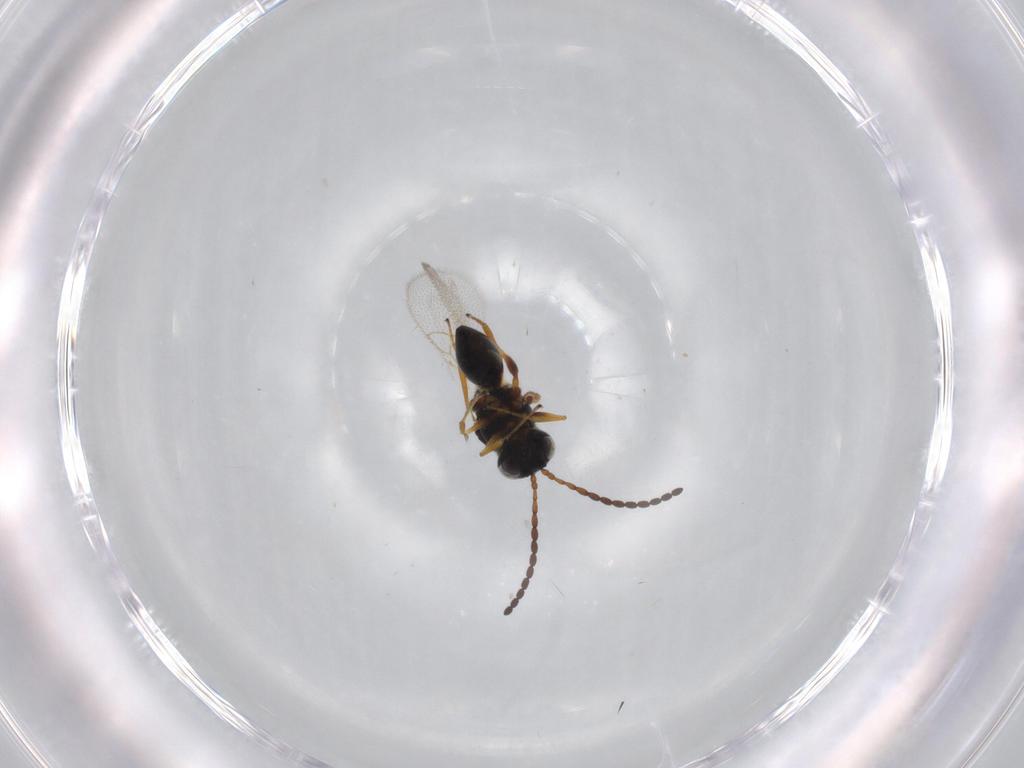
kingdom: Animalia
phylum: Arthropoda
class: Insecta
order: Hymenoptera
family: Figitidae
